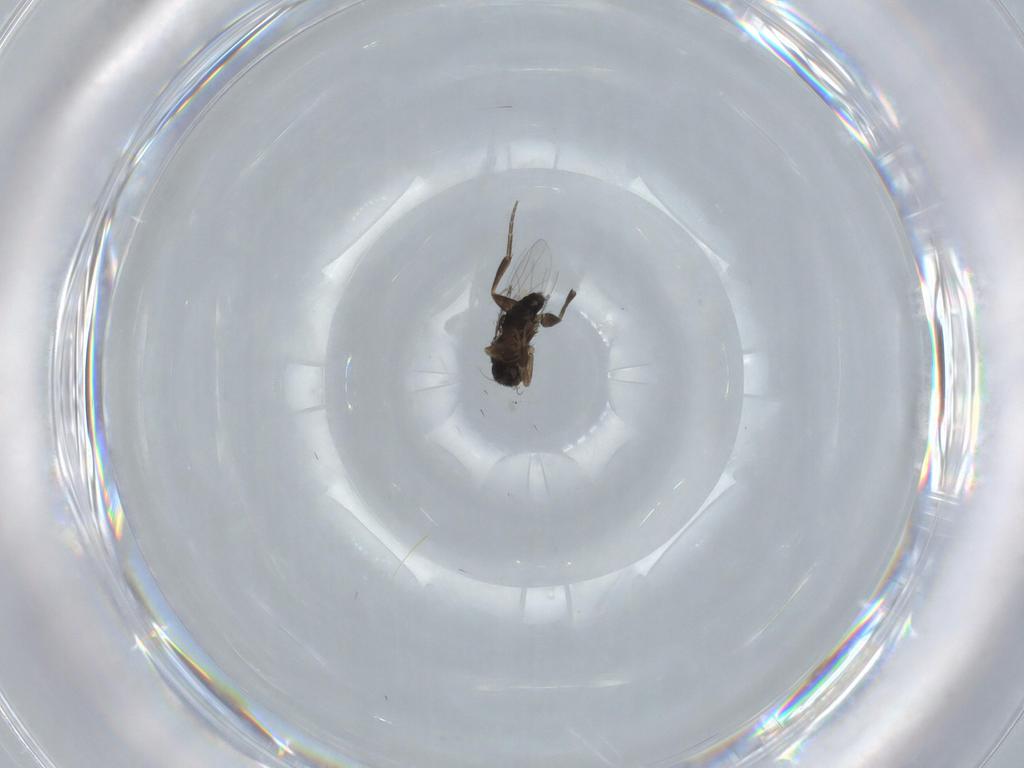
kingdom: Animalia
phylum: Arthropoda
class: Insecta
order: Diptera
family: Phoridae
